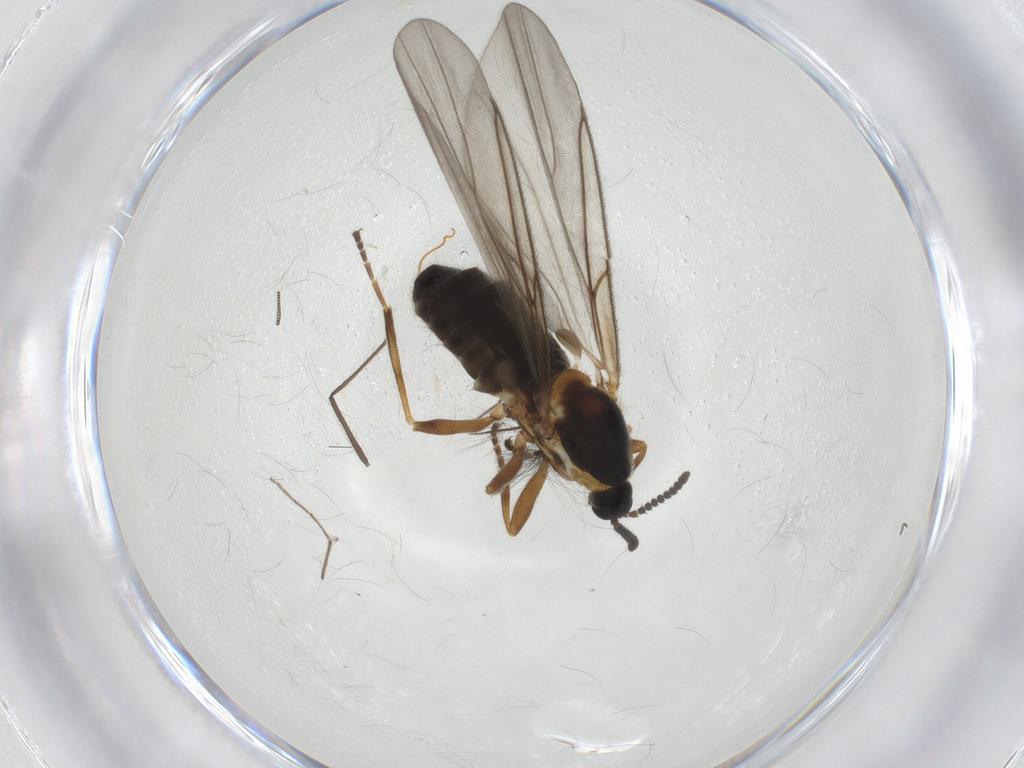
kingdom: Animalia
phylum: Arthropoda
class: Insecta
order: Diptera
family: Scatopsidae
